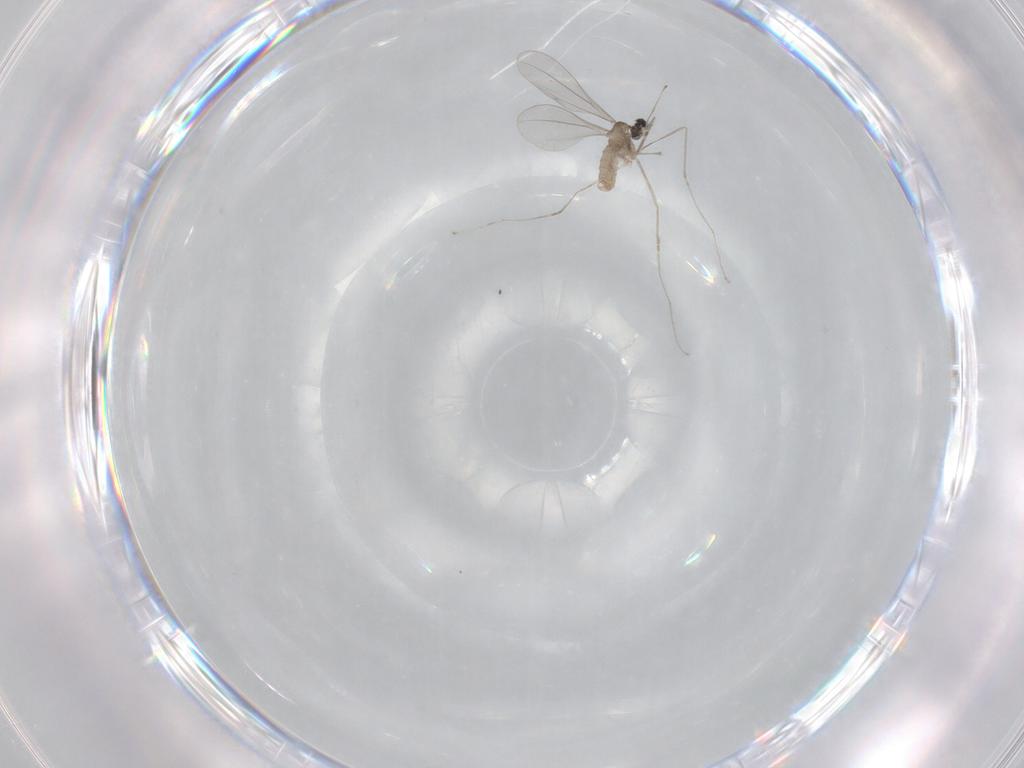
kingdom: Animalia
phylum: Arthropoda
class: Insecta
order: Diptera
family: Cecidomyiidae
